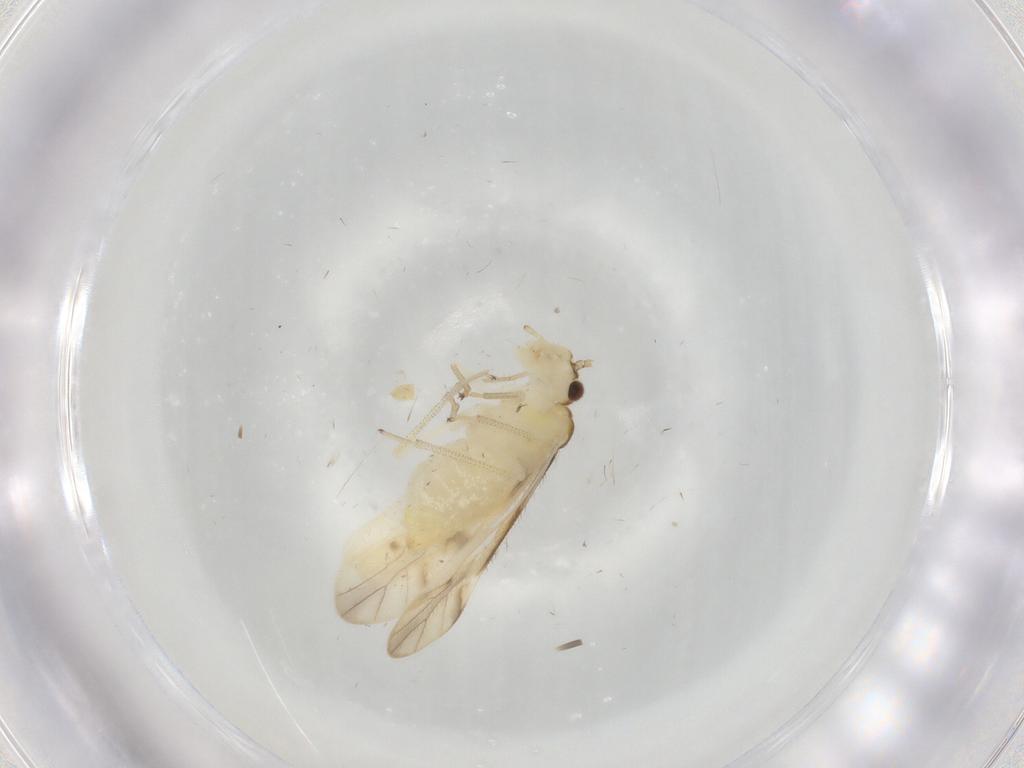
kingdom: Animalia
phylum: Arthropoda
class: Insecta
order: Psocodea
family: Caeciliusidae
